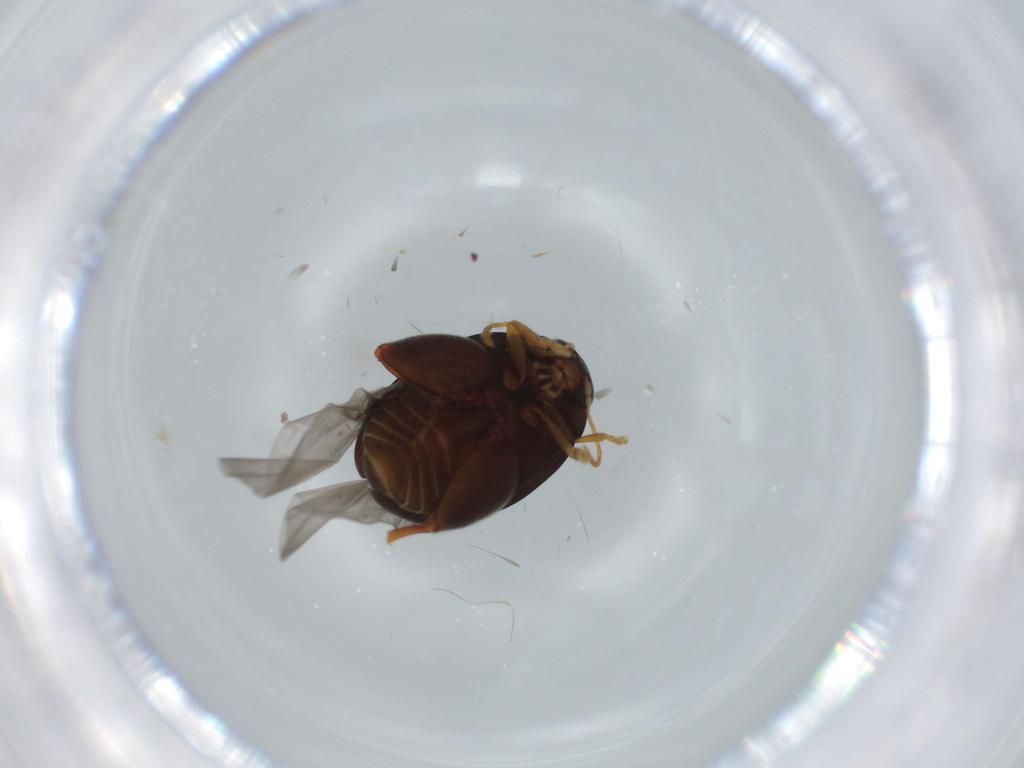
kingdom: Animalia
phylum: Arthropoda
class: Insecta
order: Coleoptera
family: Chrysomelidae
